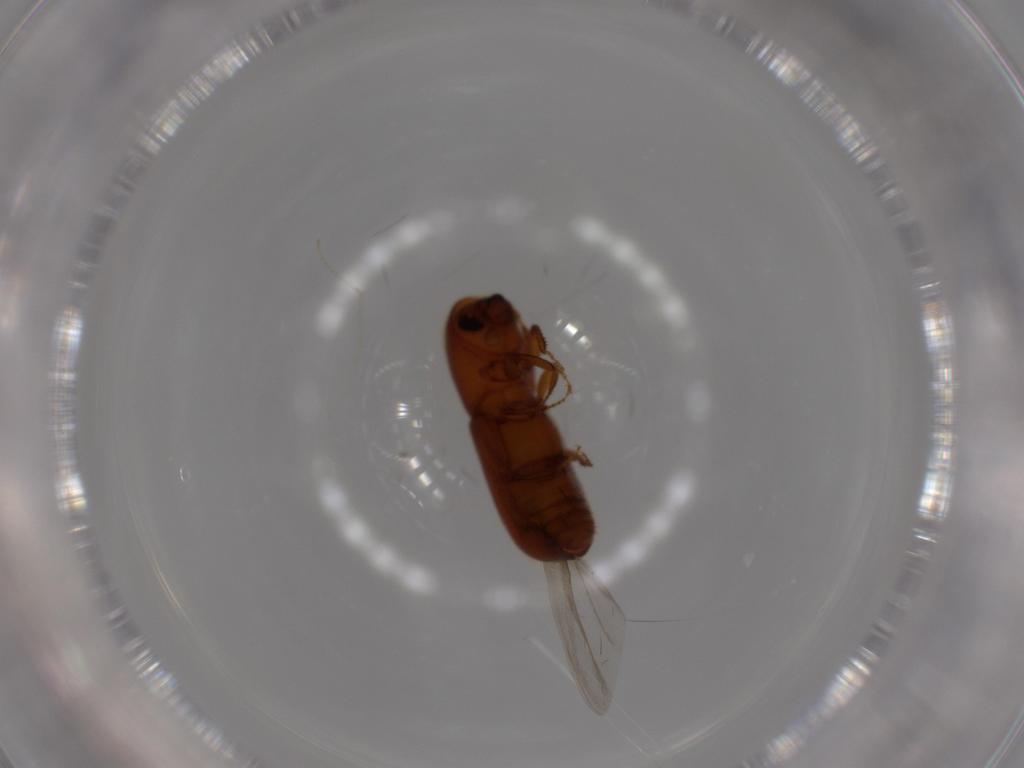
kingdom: Animalia
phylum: Arthropoda
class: Insecta
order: Coleoptera
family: Curculionidae
